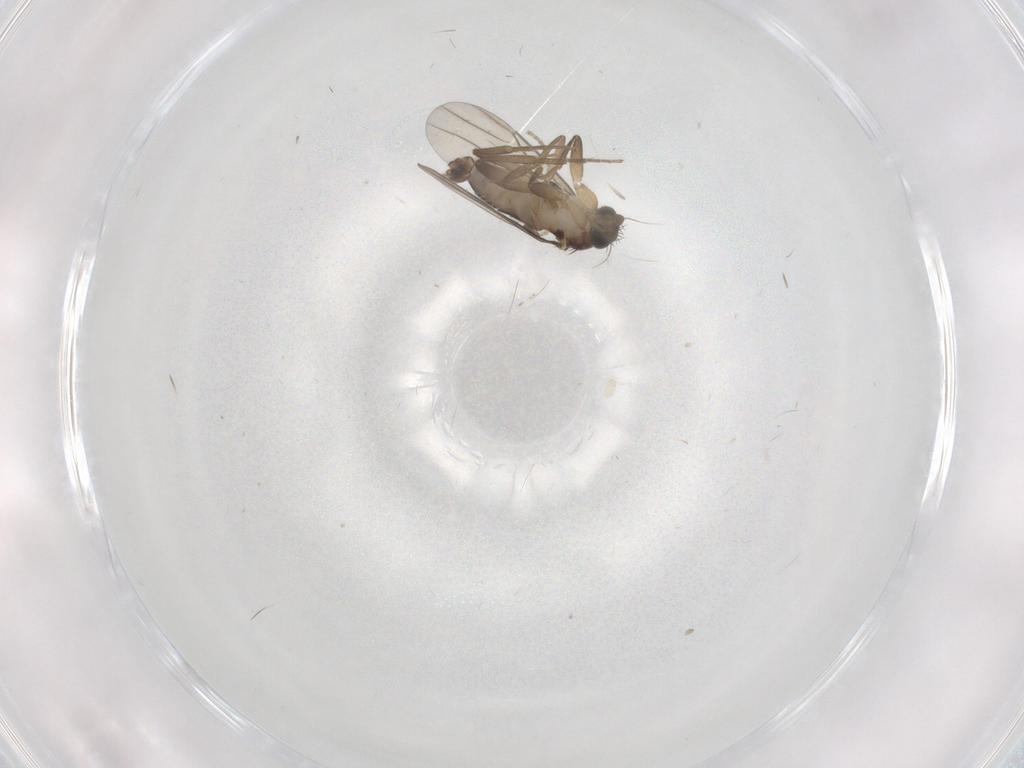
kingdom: Animalia
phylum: Arthropoda
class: Insecta
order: Diptera
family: Phoridae
